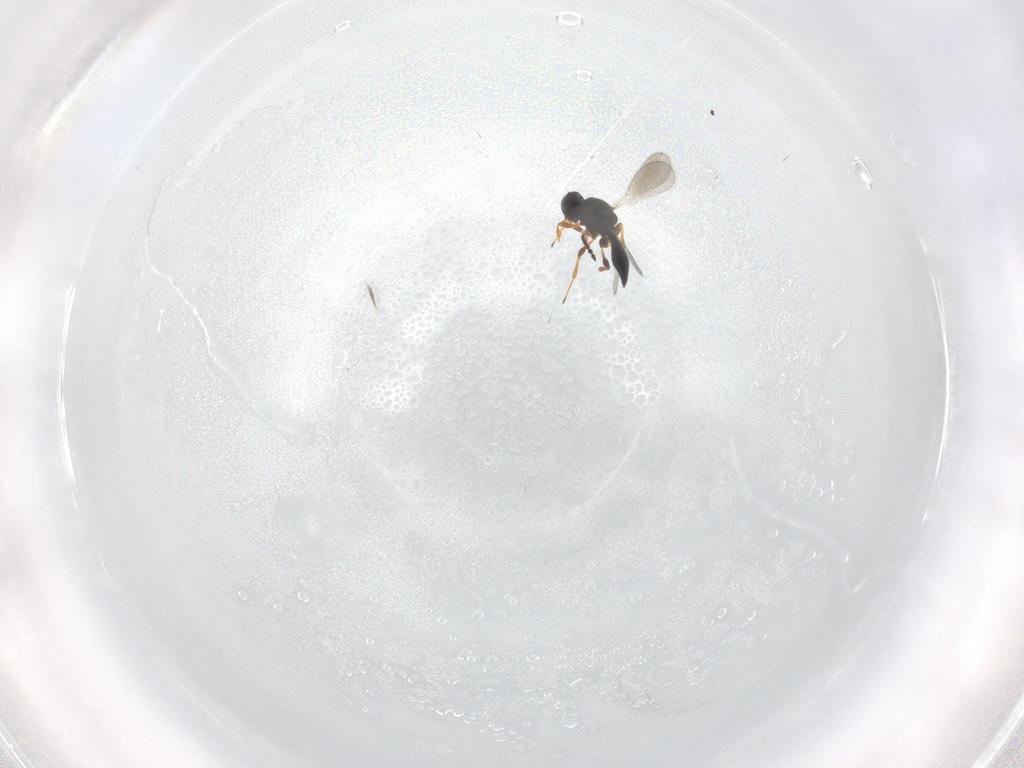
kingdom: Animalia
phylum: Arthropoda
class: Insecta
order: Hymenoptera
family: Platygastridae
